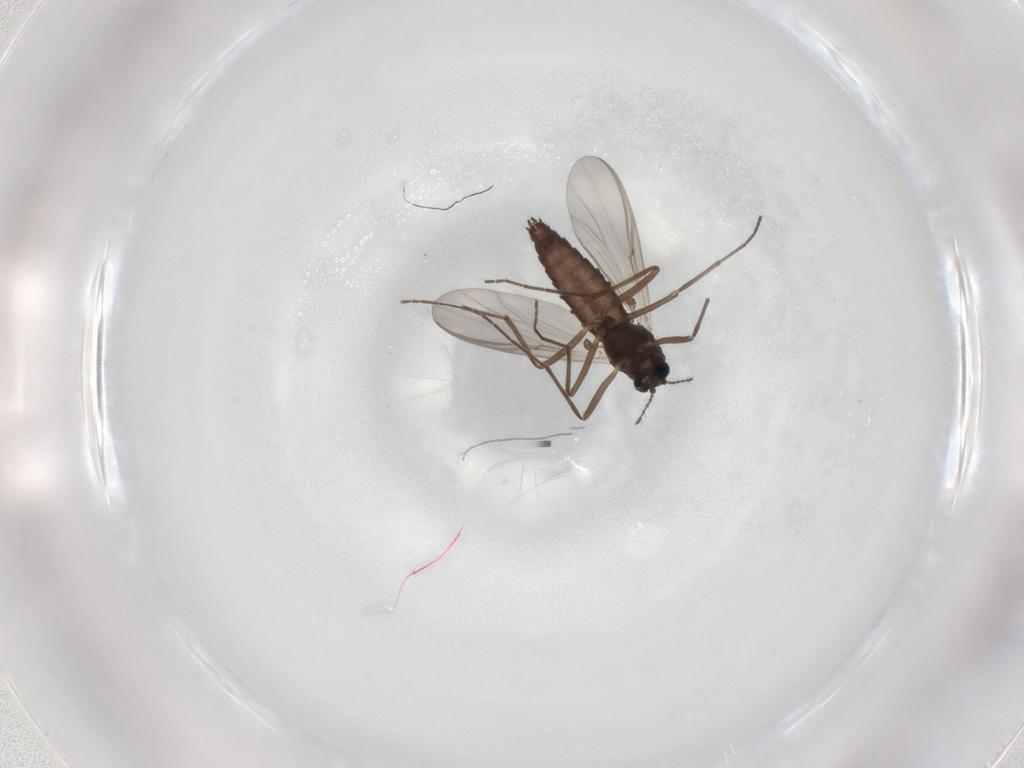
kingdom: Animalia
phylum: Arthropoda
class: Insecta
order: Diptera
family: Chironomidae
